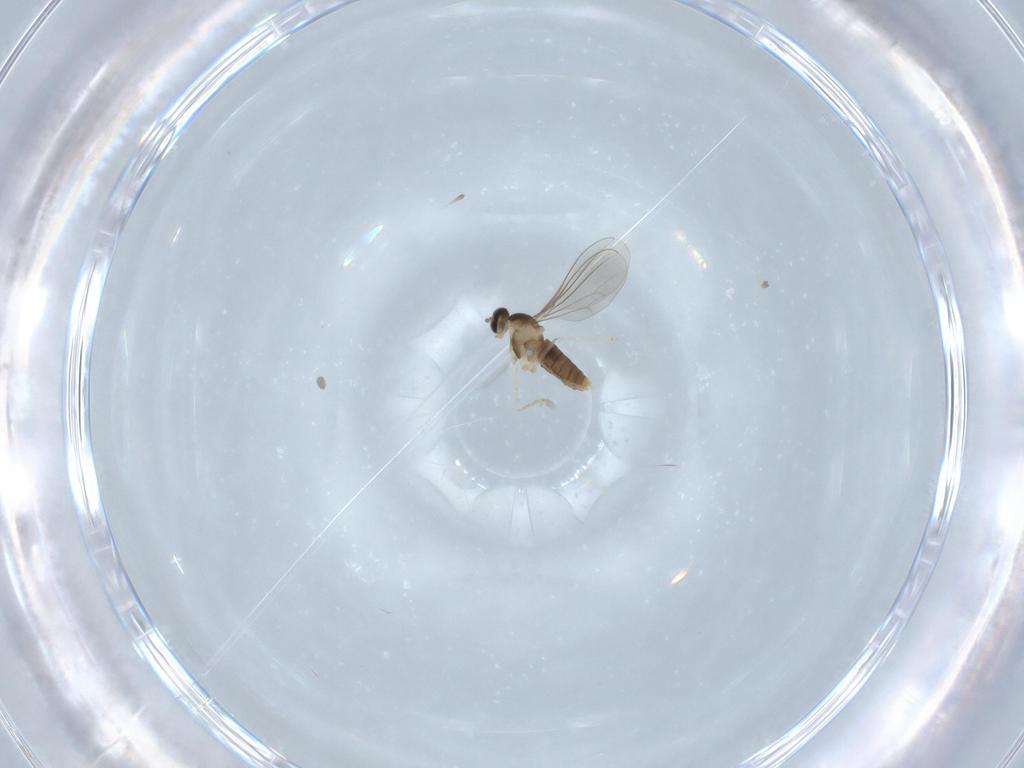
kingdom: Animalia
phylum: Arthropoda
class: Insecta
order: Diptera
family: Cecidomyiidae
